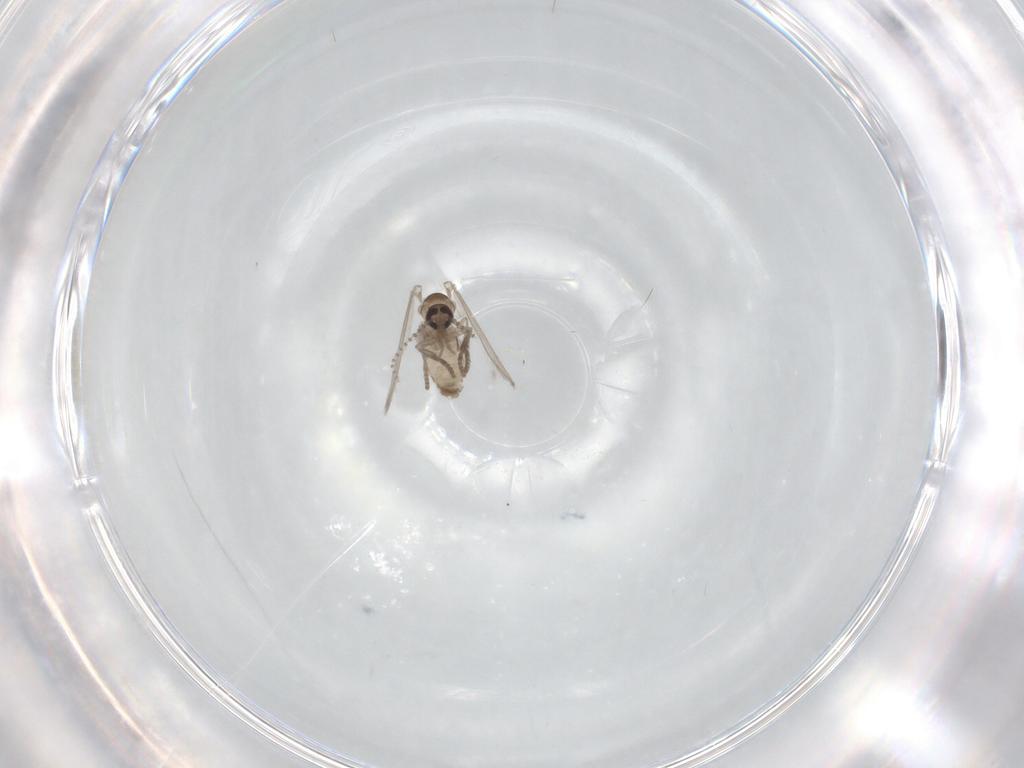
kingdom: Animalia
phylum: Arthropoda
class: Insecta
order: Diptera
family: Psychodidae
